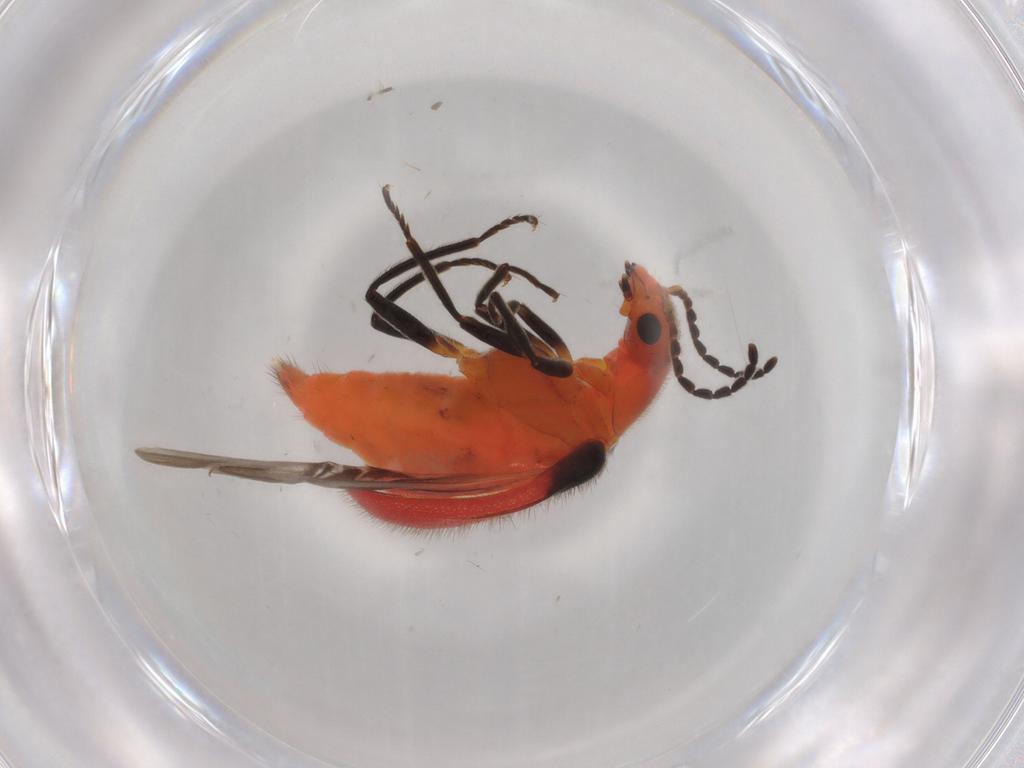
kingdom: Animalia
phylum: Arthropoda
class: Insecta
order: Coleoptera
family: Melyridae
